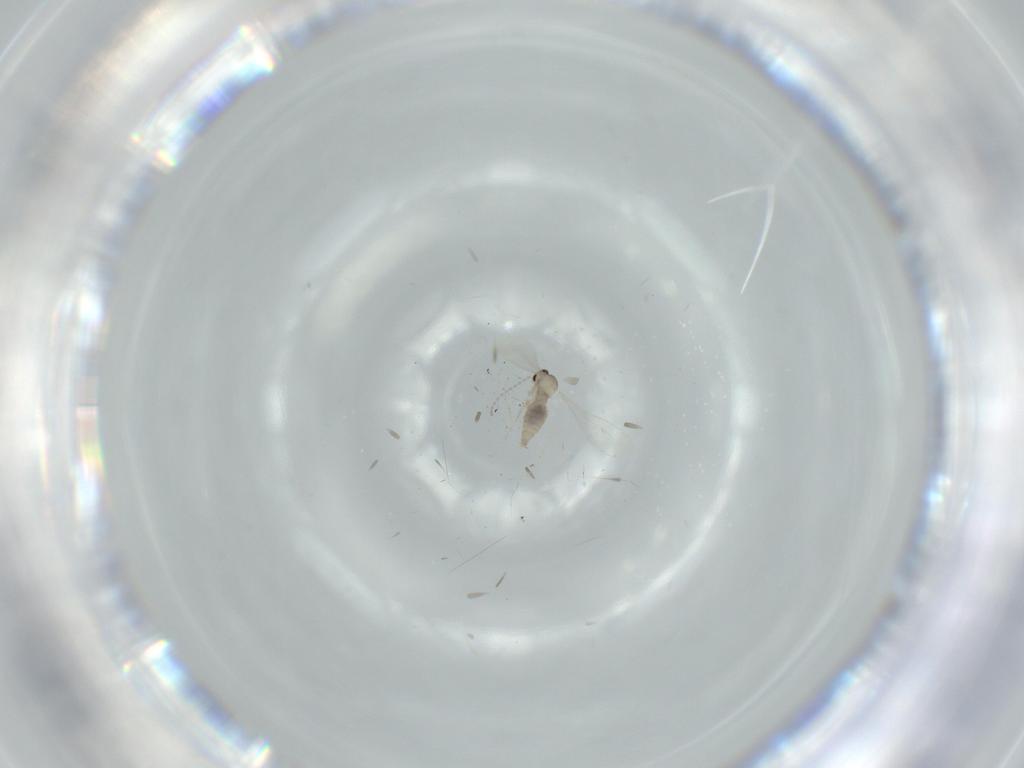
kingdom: Animalia
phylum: Arthropoda
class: Insecta
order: Diptera
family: Cecidomyiidae
